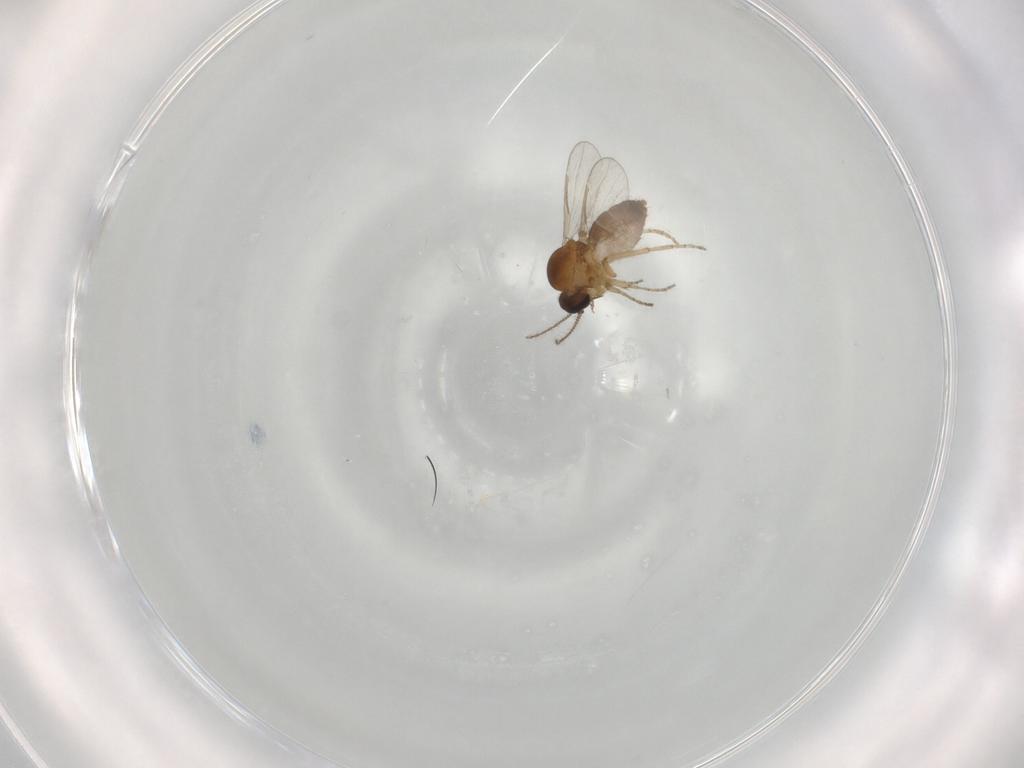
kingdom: Animalia
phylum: Arthropoda
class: Insecta
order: Diptera
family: Ceratopogonidae
